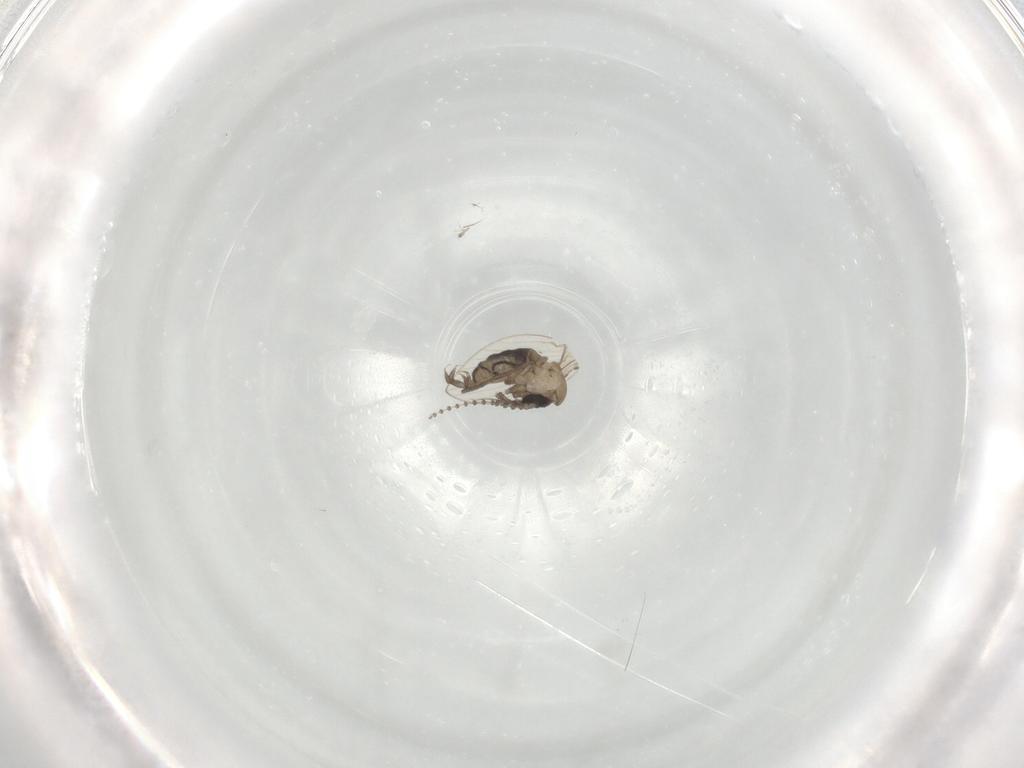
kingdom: Animalia
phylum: Arthropoda
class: Insecta
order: Diptera
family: Psychodidae
